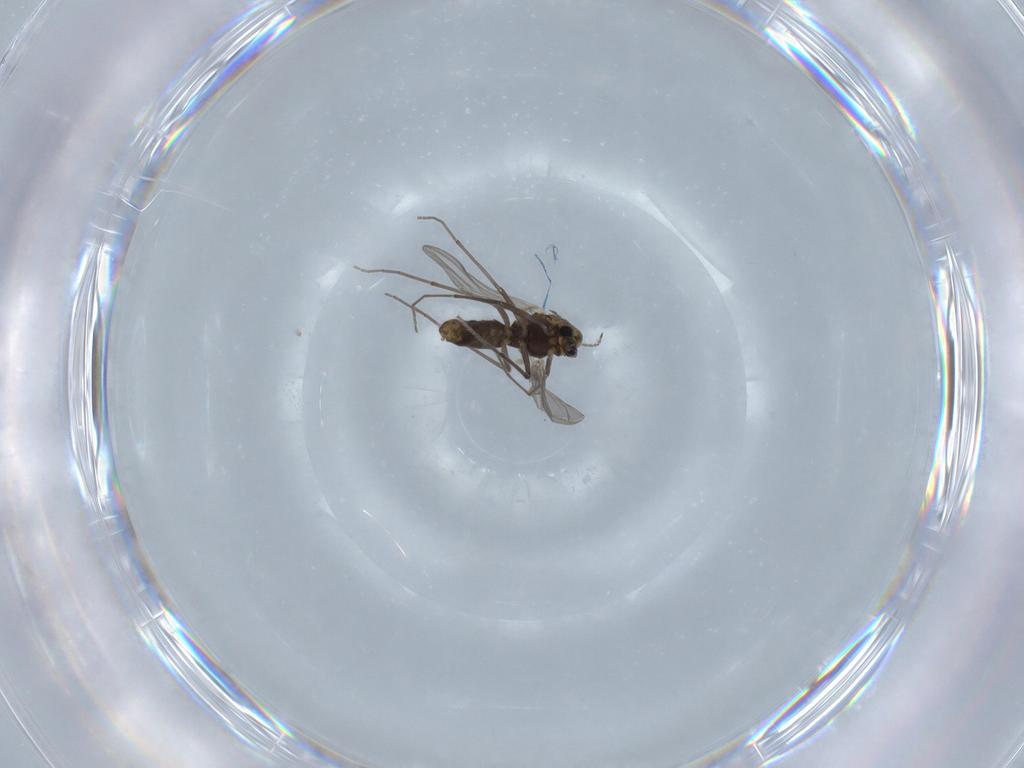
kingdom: Animalia
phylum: Arthropoda
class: Insecta
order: Diptera
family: Chironomidae
